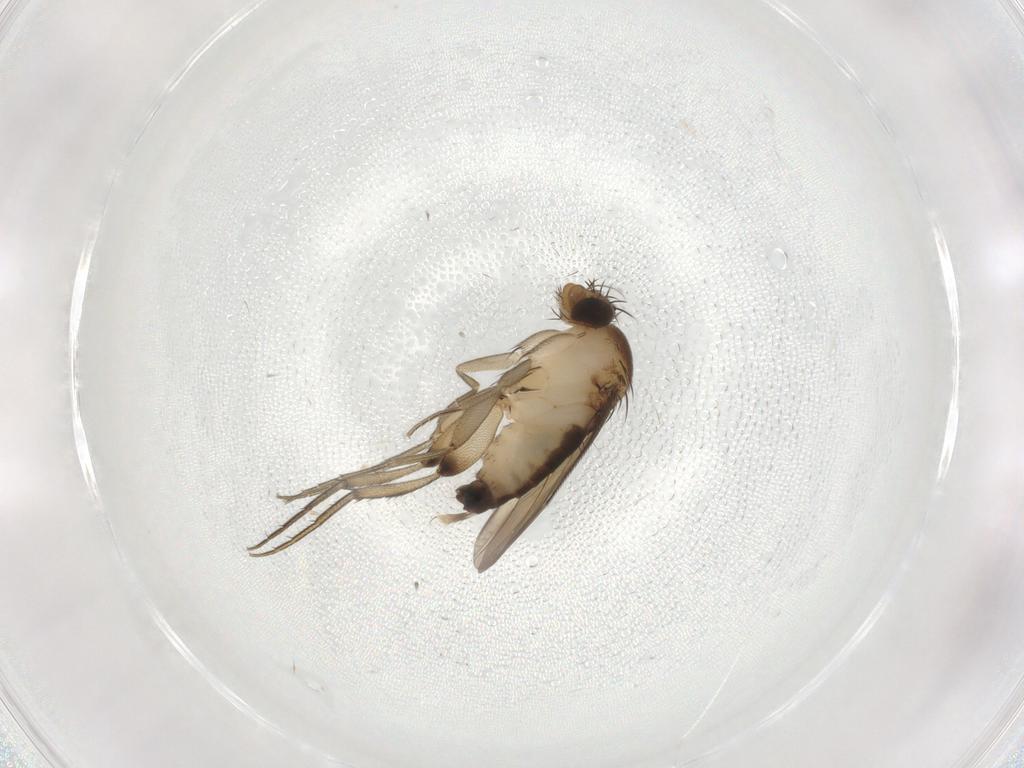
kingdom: Animalia
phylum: Arthropoda
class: Insecta
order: Diptera
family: Phoridae
